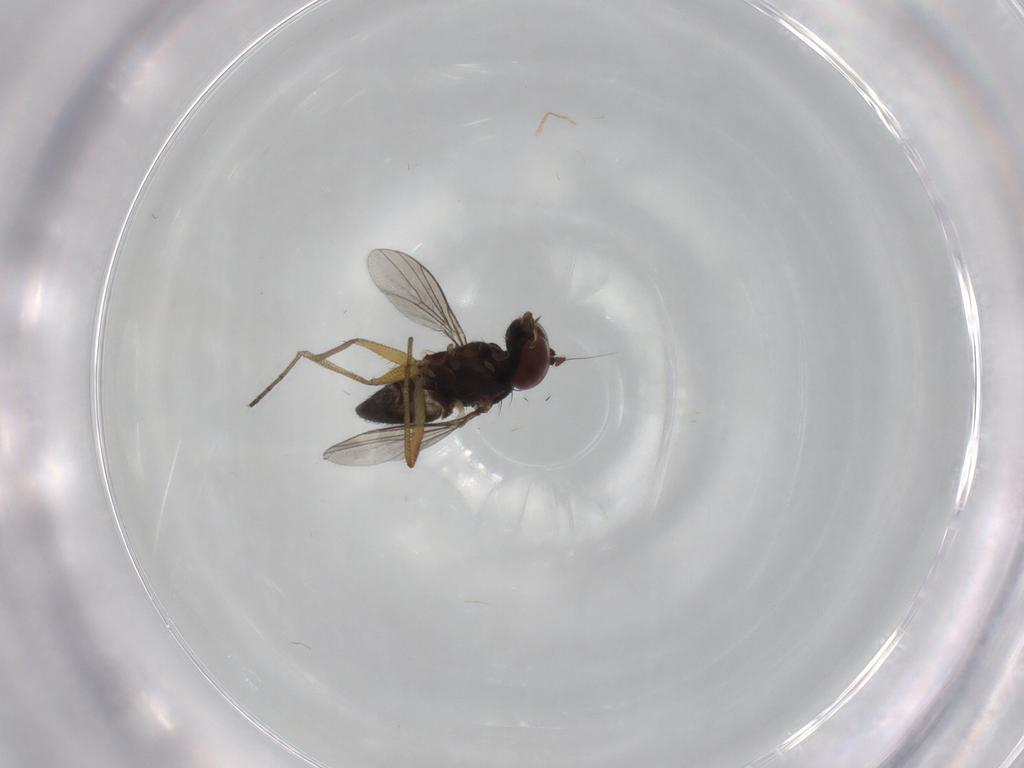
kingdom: Animalia
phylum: Arthropoda
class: Insecta
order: Diptera
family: Dolichopodidae
